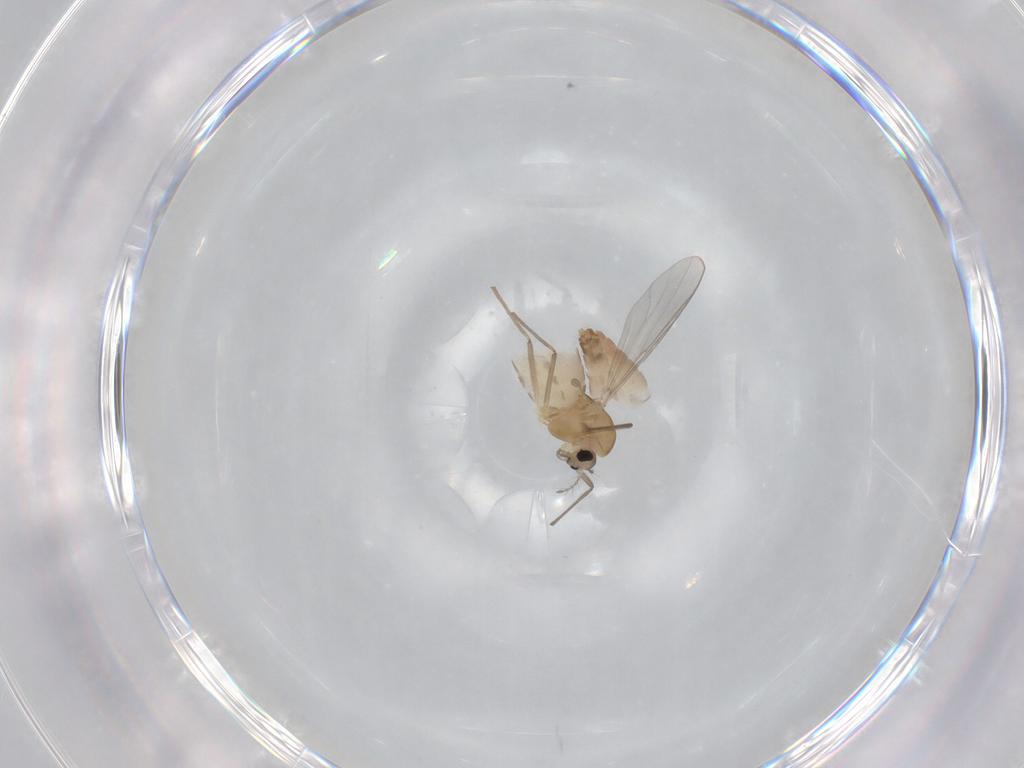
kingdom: Animalia
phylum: Arthropoda
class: Insecta
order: Diptera
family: Chironomidae
